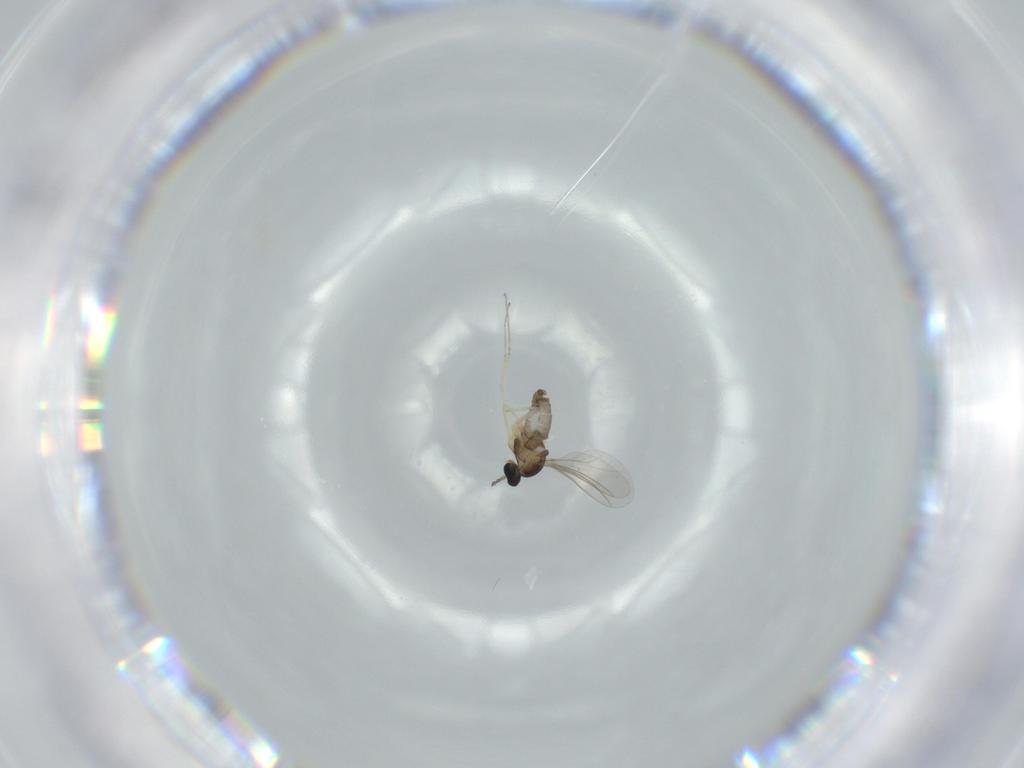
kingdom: Animalia
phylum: Arthropoda
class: Insecta
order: Diptera
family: Cecidomyiidae
